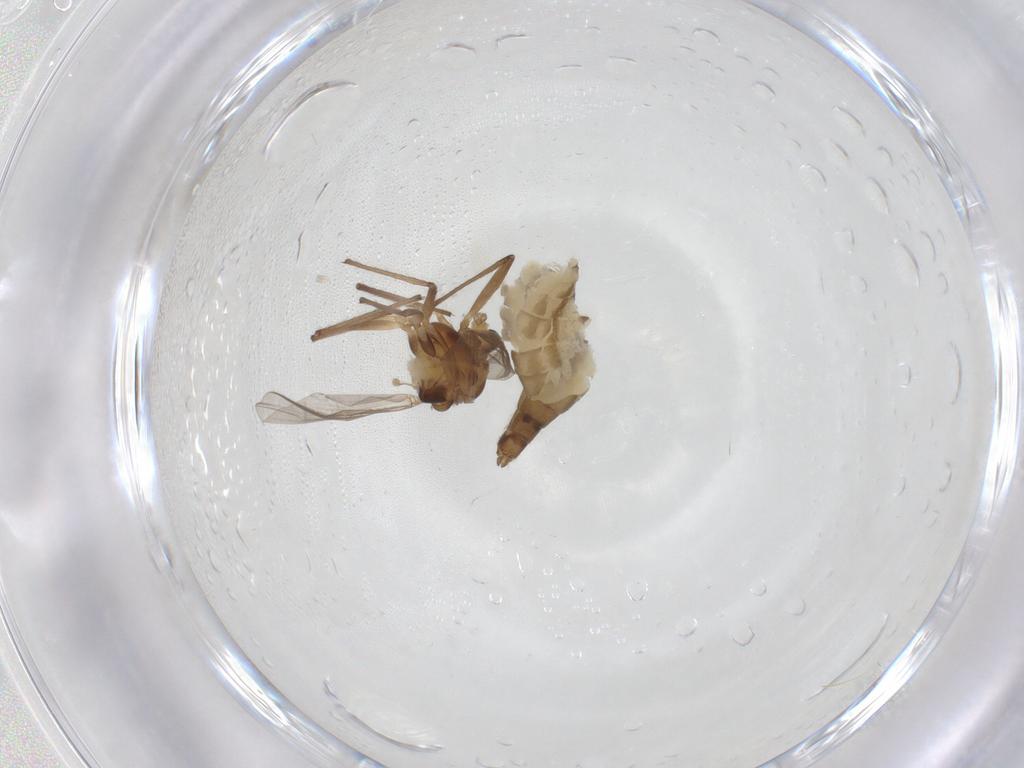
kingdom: Animalia
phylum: Arthropoda
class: Insecta
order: Diptera
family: Chironomidae
